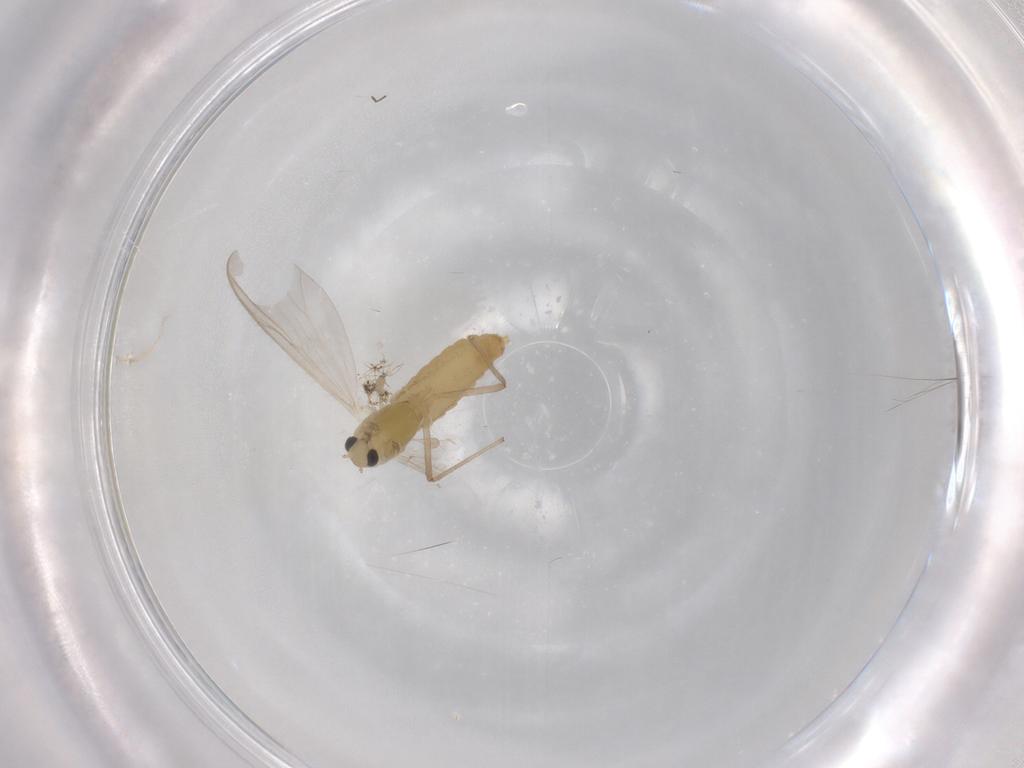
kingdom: Animalia
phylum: Arthropoda
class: Insecta
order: Diptera
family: Chironomidae
